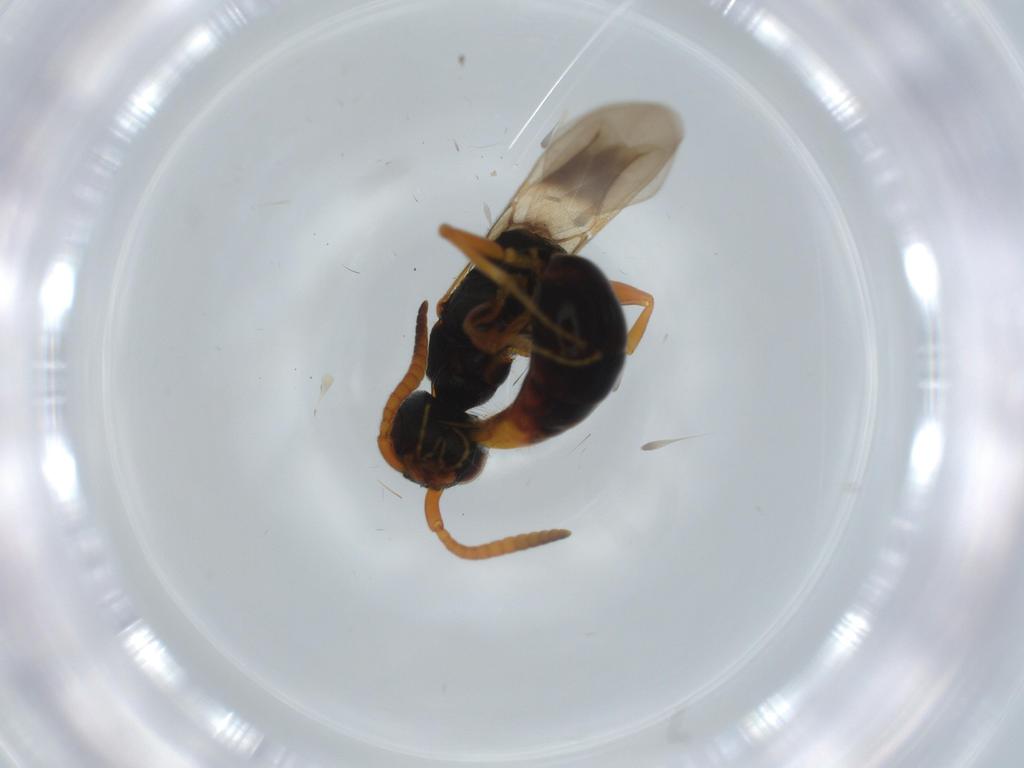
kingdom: Animalia
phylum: Arthropoda
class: Insecta
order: Hymenoptera
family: Bethylidae
